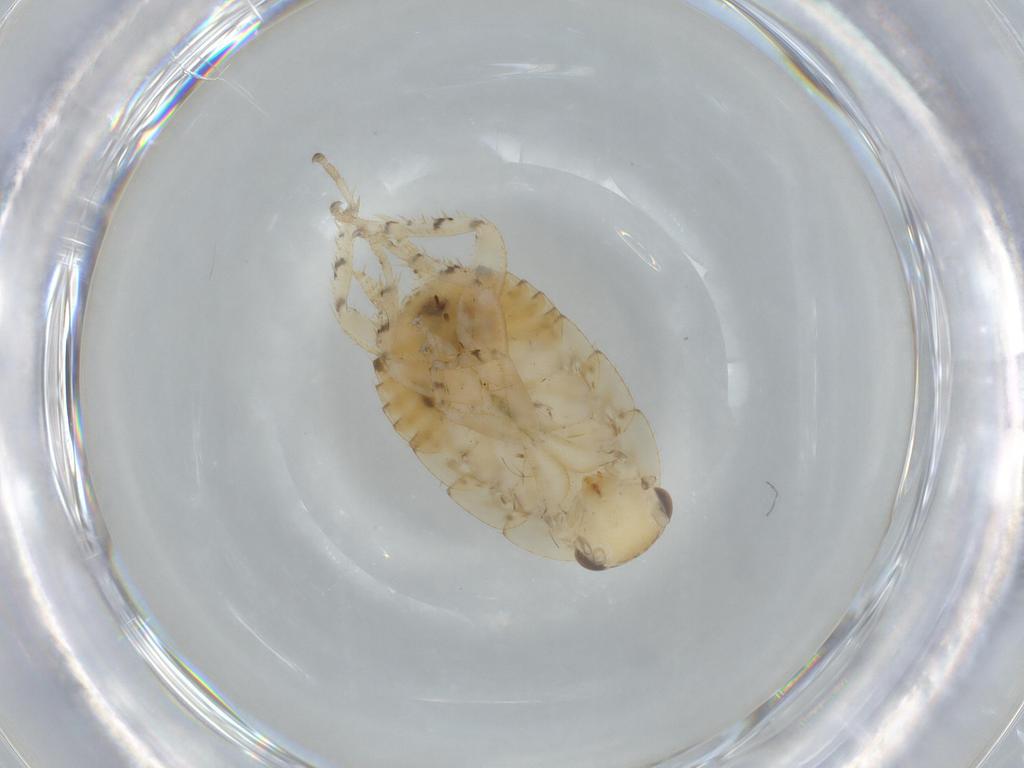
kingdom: Animalia
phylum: Arthropoda
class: Insecta
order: Blattodea
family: Ectobiidae
